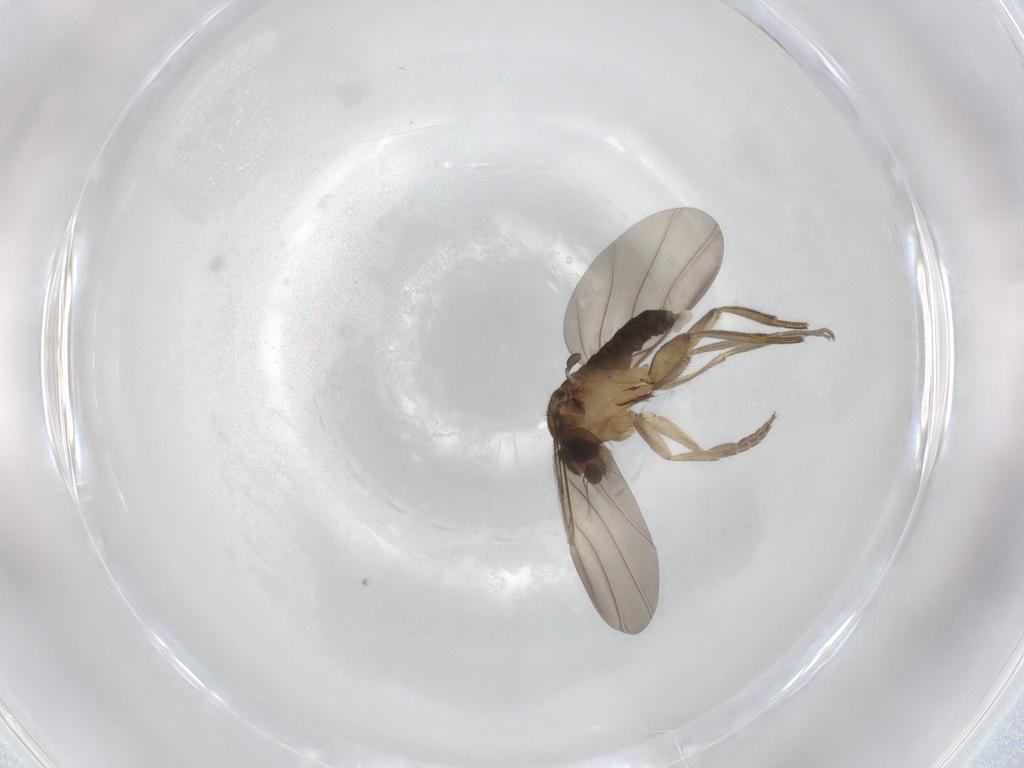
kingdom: Animalia
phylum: Arthropoda
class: Insecta
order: Diptera
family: Phoridae
